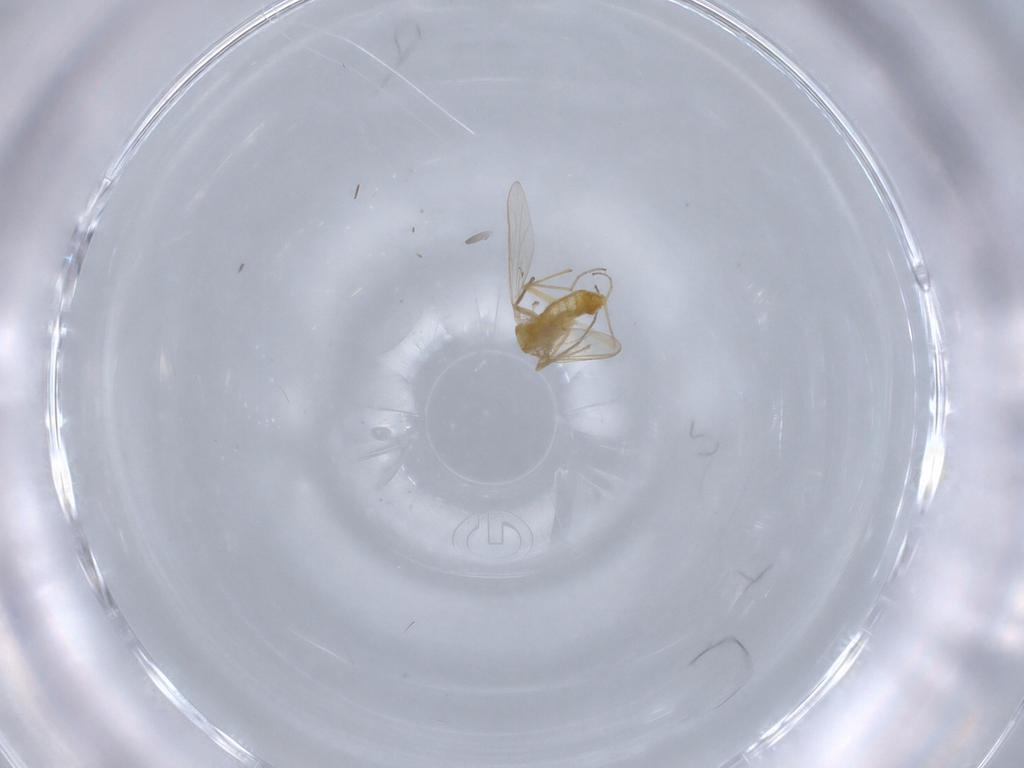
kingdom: Animalia
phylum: Arthropoda
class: Insecta
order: Diptera
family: Chironomidae
